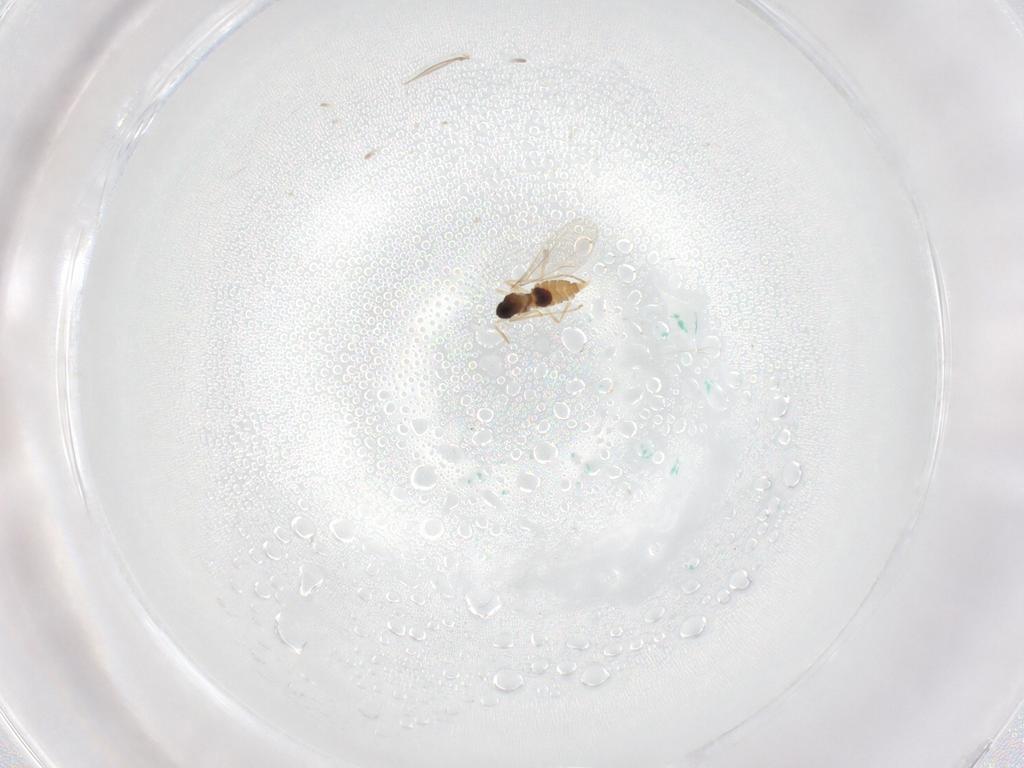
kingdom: Animalia
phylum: Arthropoda
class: Insecta
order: Diptera
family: Cecidomyiidae
